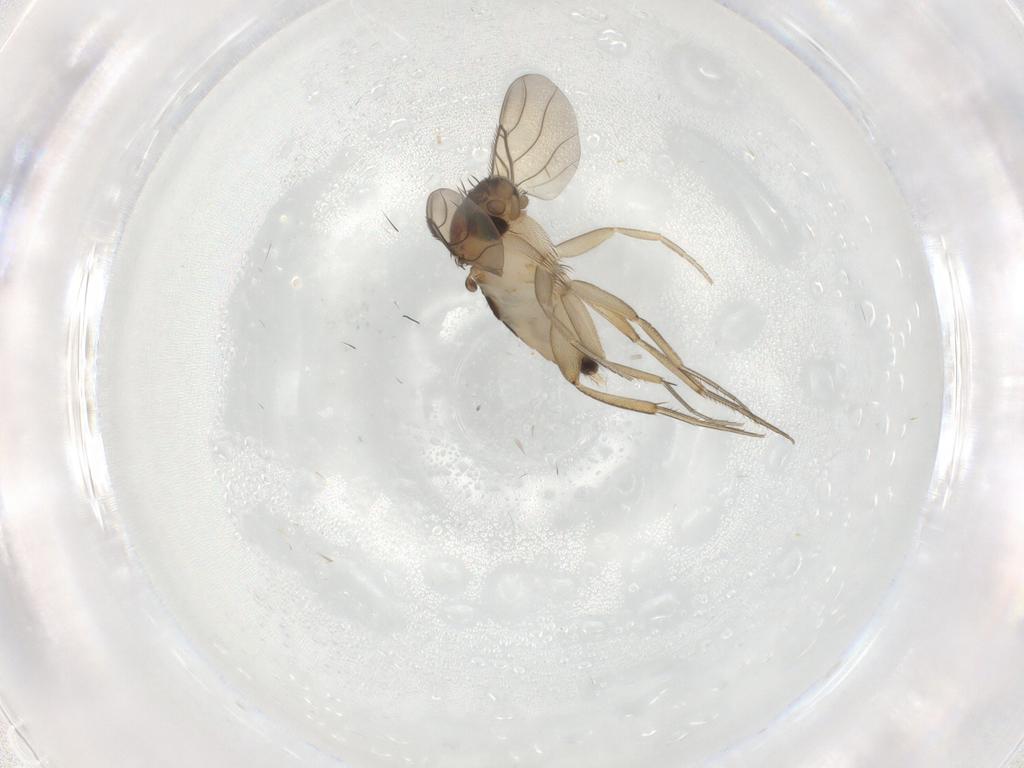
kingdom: Animalia
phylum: Arthropoda
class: Insecta
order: Diptera
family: Phoridae
